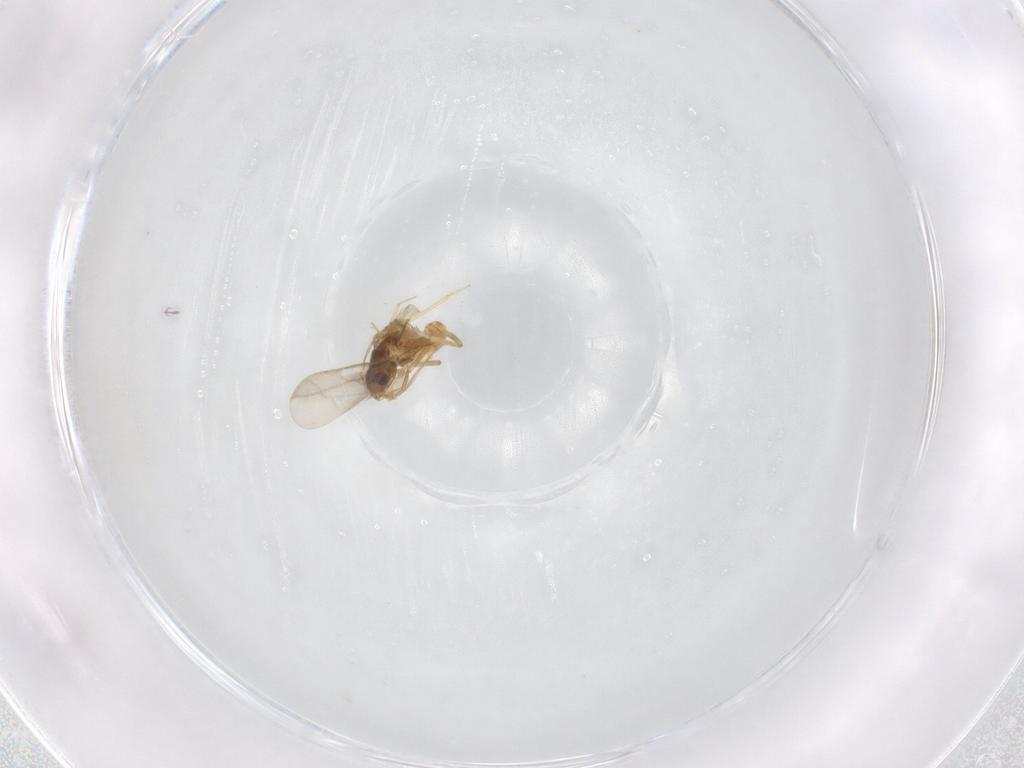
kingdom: Animalia
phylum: Arthropoda
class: Insecta
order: Hemiptera
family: Ceratocombidae
